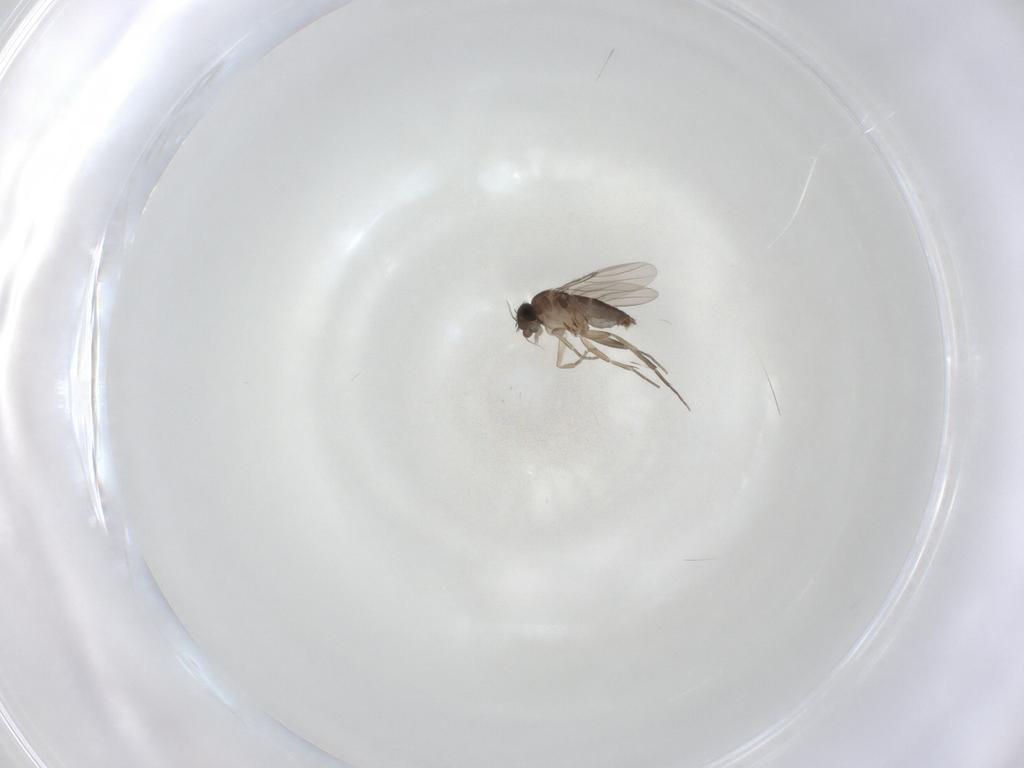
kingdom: Animalia
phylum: Arthropoda
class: Insecta
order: Diptera
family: Phoridae
